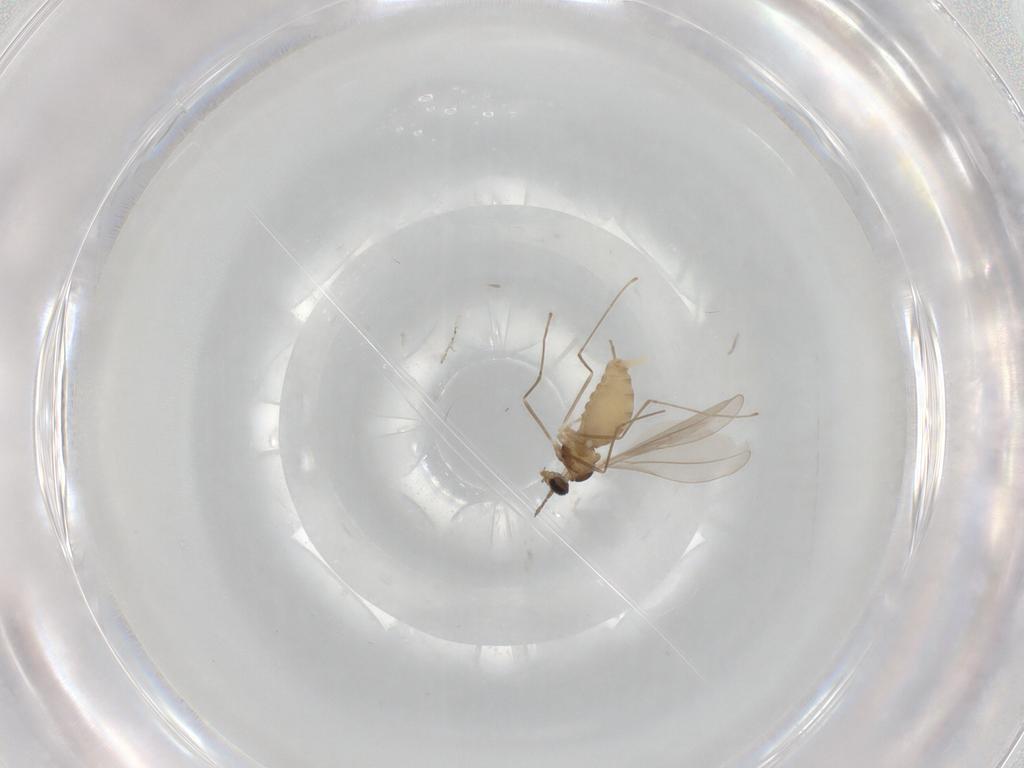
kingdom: Animalia
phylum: Arthropoda
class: Insecta
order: Diptera
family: Cecidomyiidae
